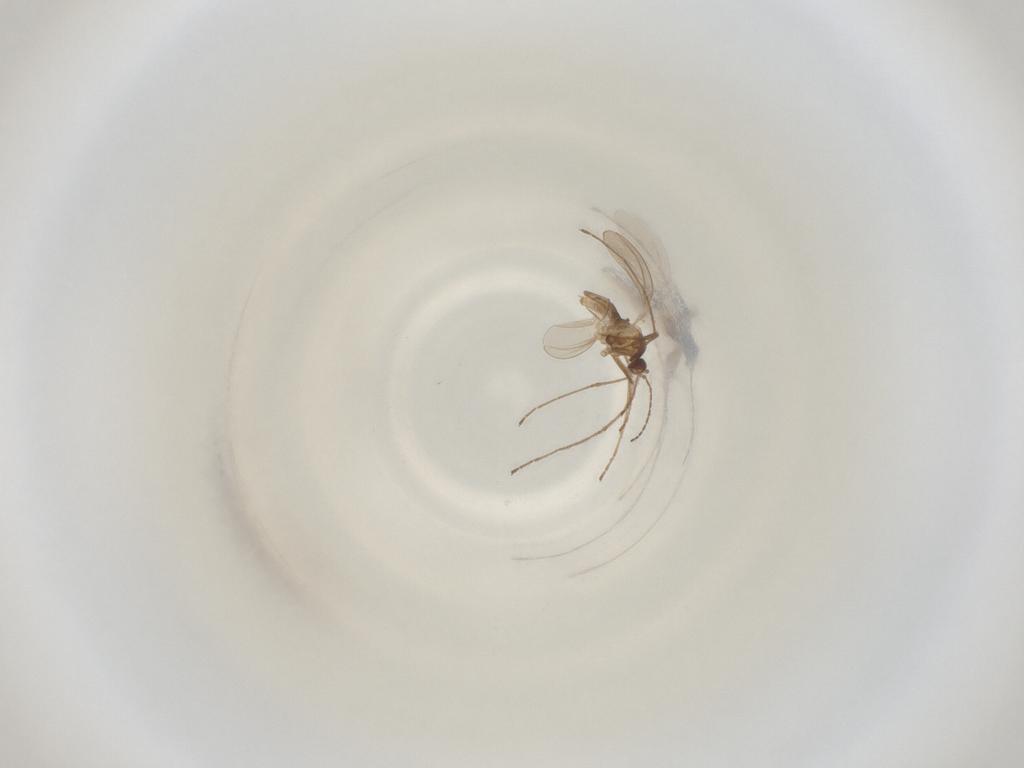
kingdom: Animalia
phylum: Arthropoda
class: Insecta
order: Diptera
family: Cecidomyiidae
